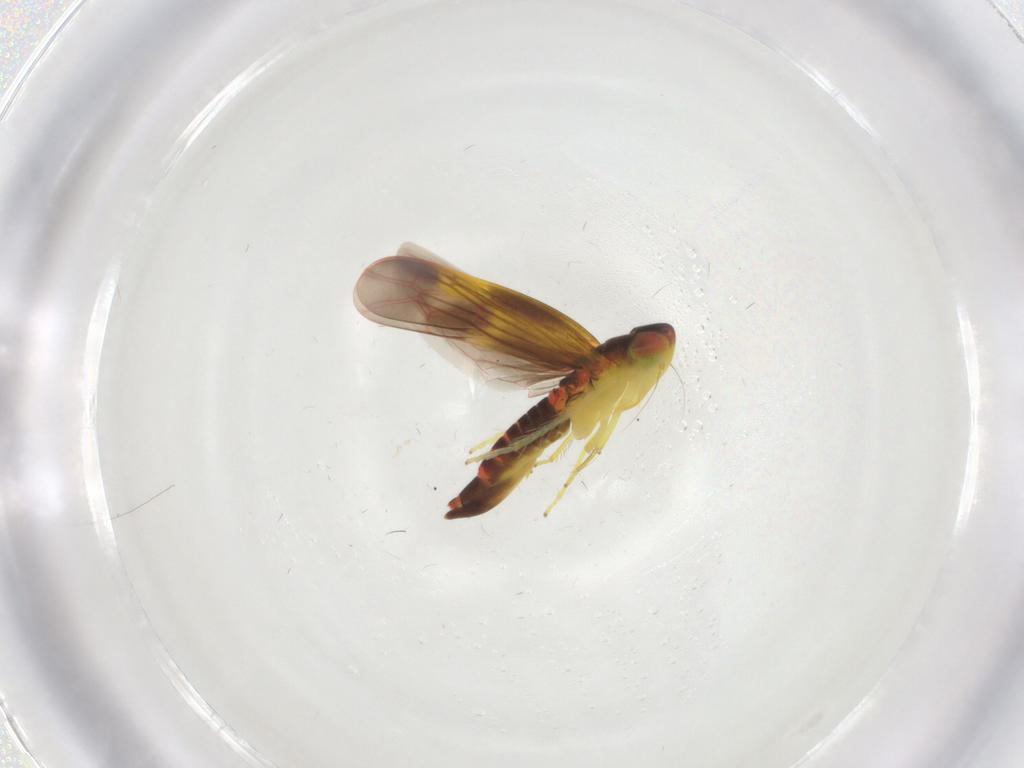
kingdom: Animalia
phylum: Arthropoda
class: Insecta
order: Hemiptera
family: Cicadellidae
